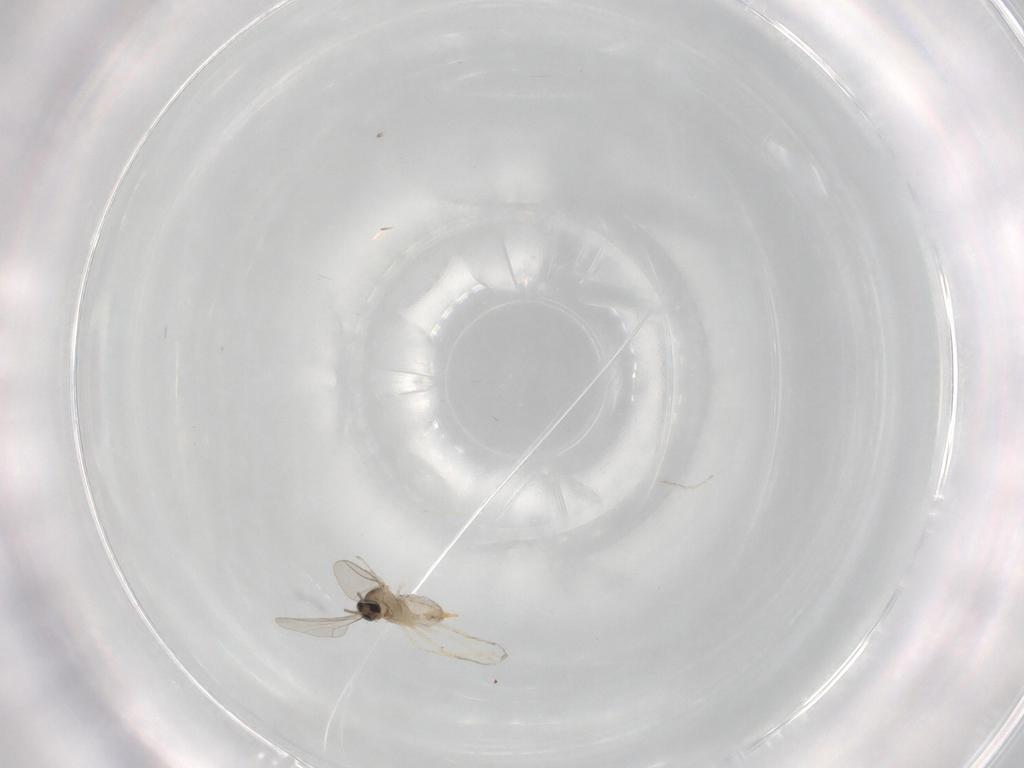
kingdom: Animalia
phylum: Arthropoda
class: Insecta
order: Diptera
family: Cecidomyiidae
